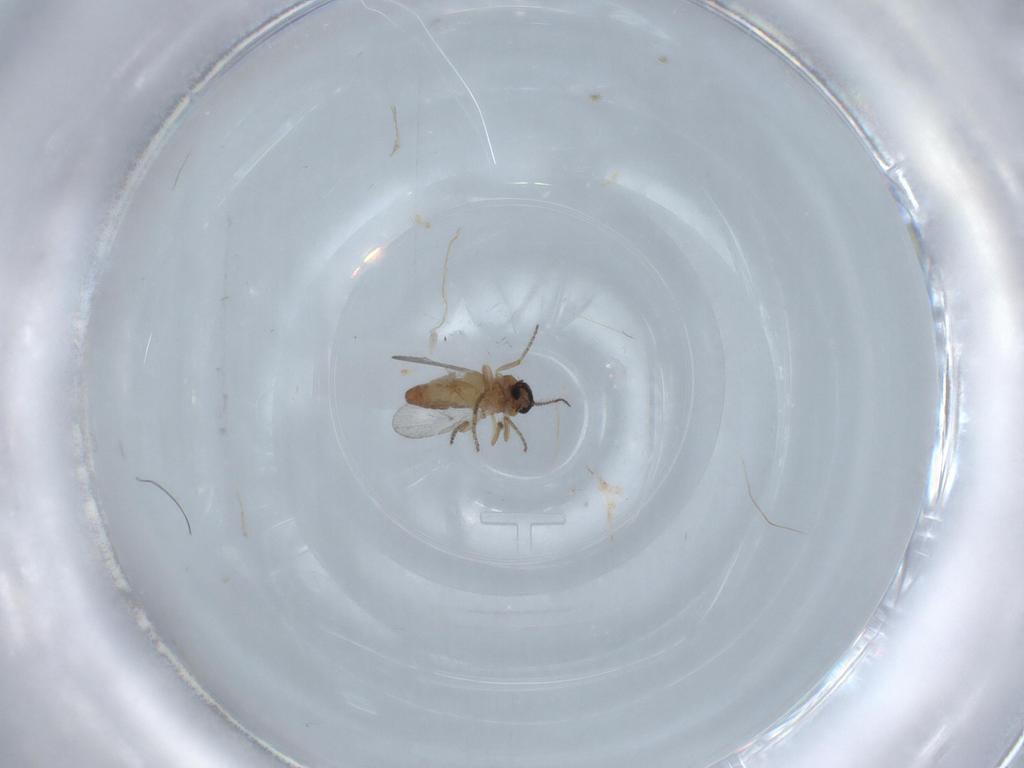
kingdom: Animalia
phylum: Arthropoda
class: Insecta
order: Diptera
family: Ceratopogonidae
